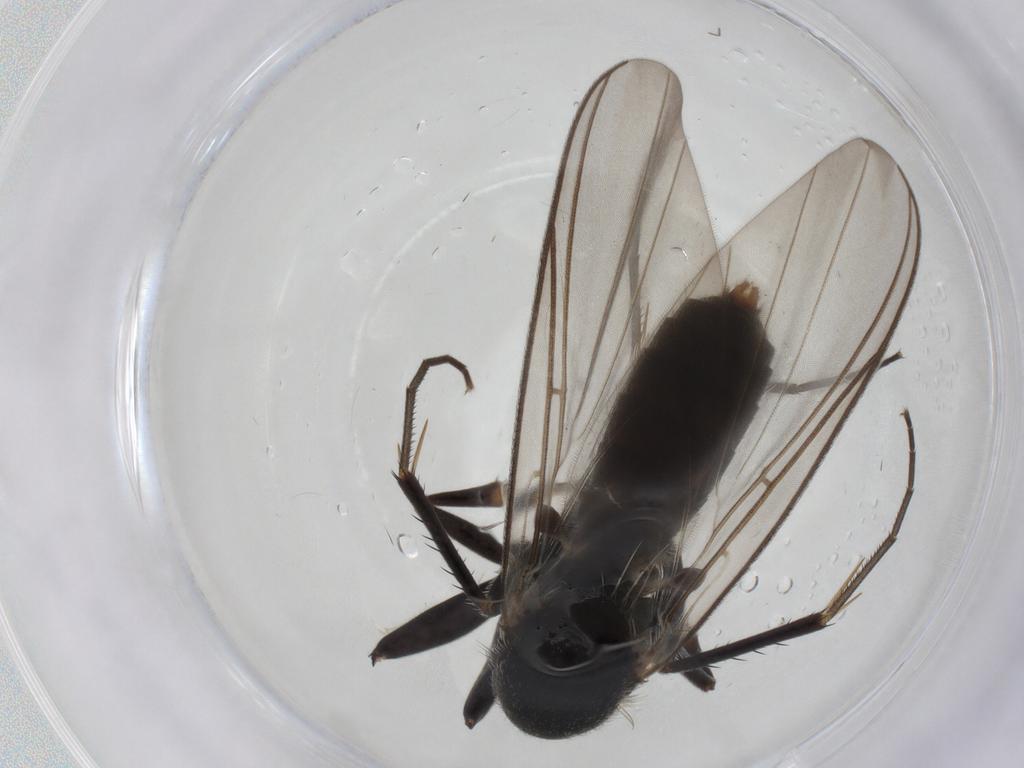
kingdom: Animalia
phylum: Arthropoda
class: Insecta
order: Diptera
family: Mycetophilidae
